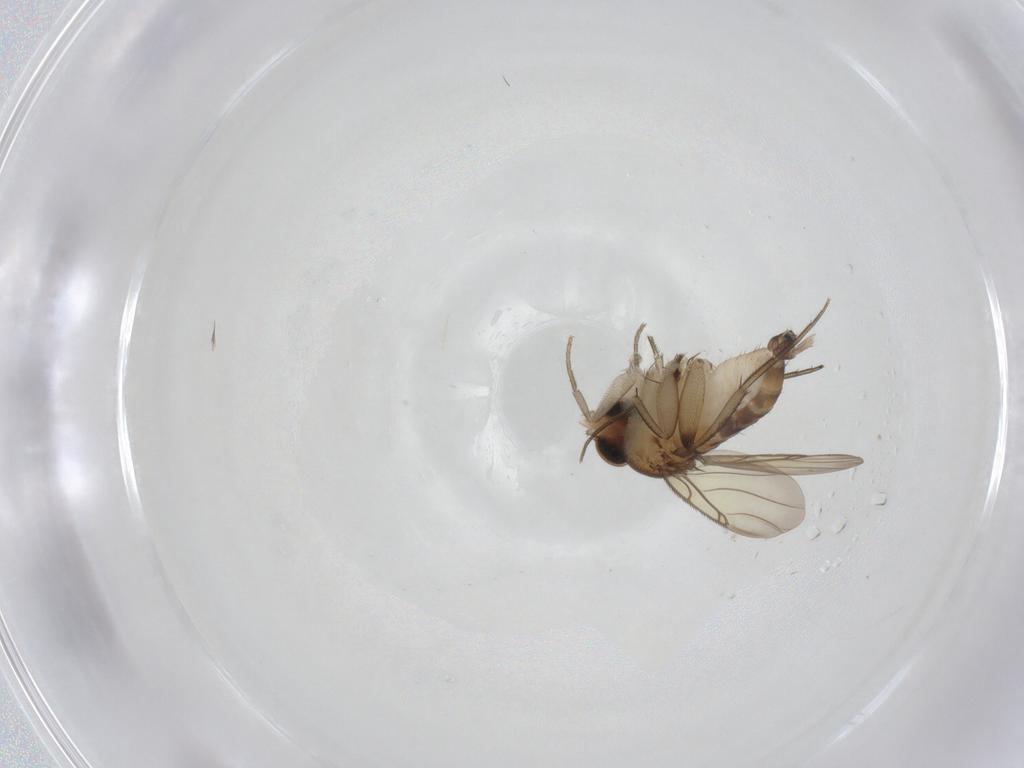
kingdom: Animalia
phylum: Arthropoda
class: Insecta
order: Diptera
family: Phoridae
